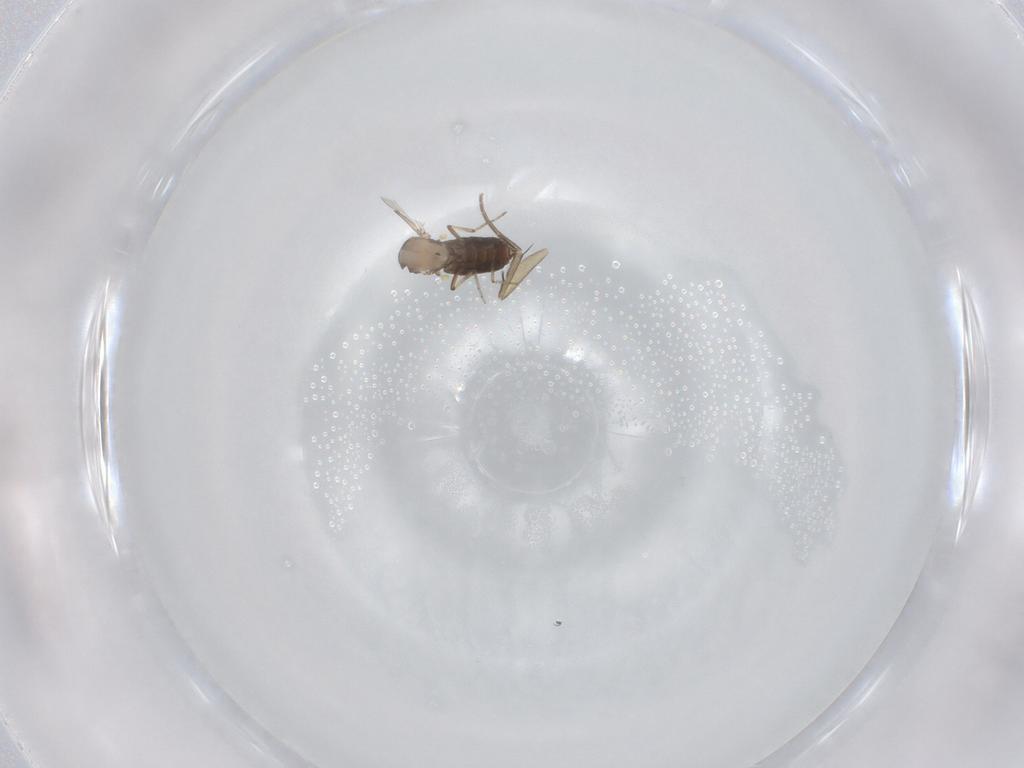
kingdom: Animalia
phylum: Arthropoda
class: Insecta
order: Diptera
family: Ceratopogonidae
